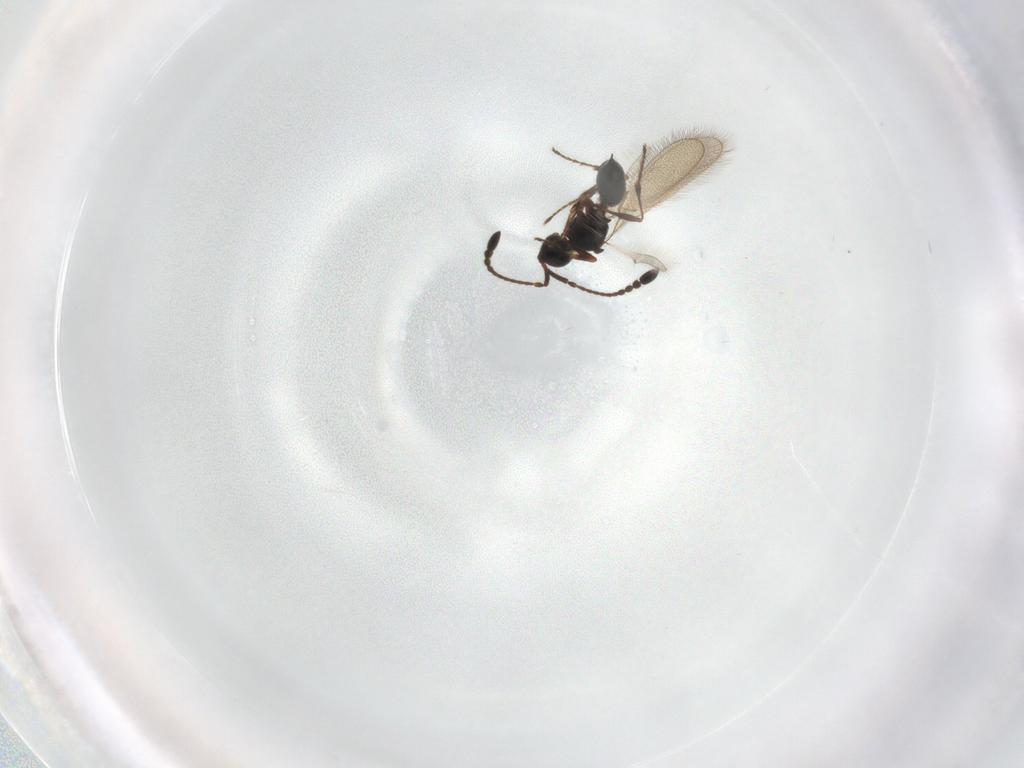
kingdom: Animalia
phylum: Arthropoda
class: Insecta
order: Hymenoptera
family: Diapriidae
